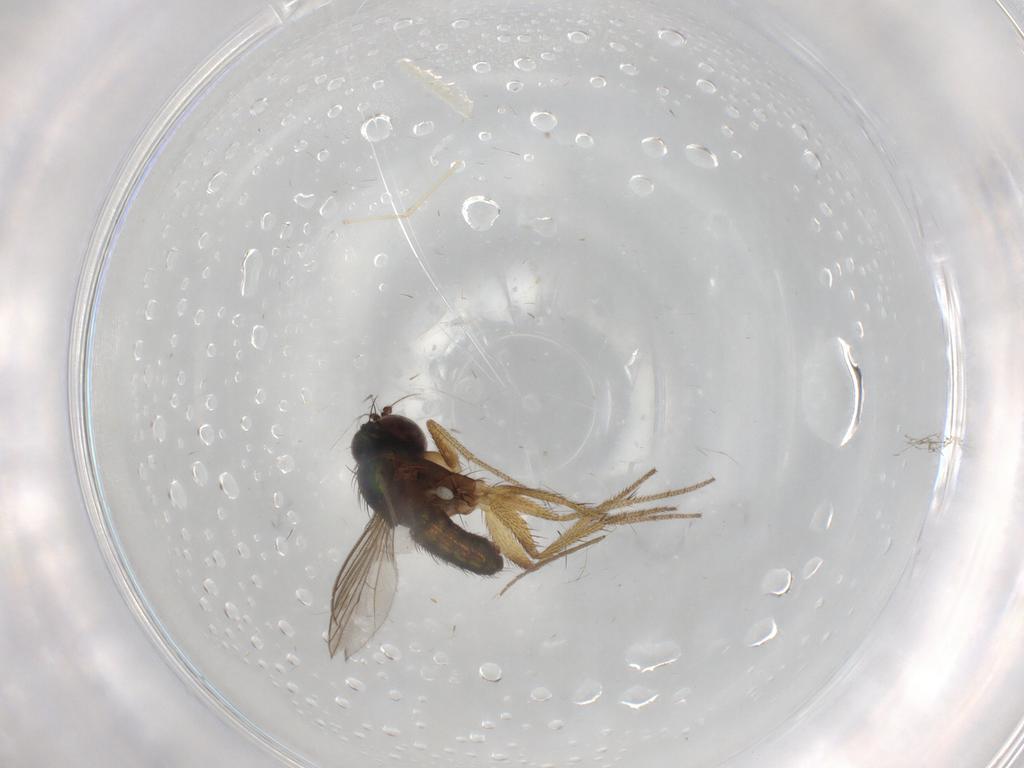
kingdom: Animalia
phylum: Arthropoda
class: Insecta
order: Diptera
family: Chironomidae
